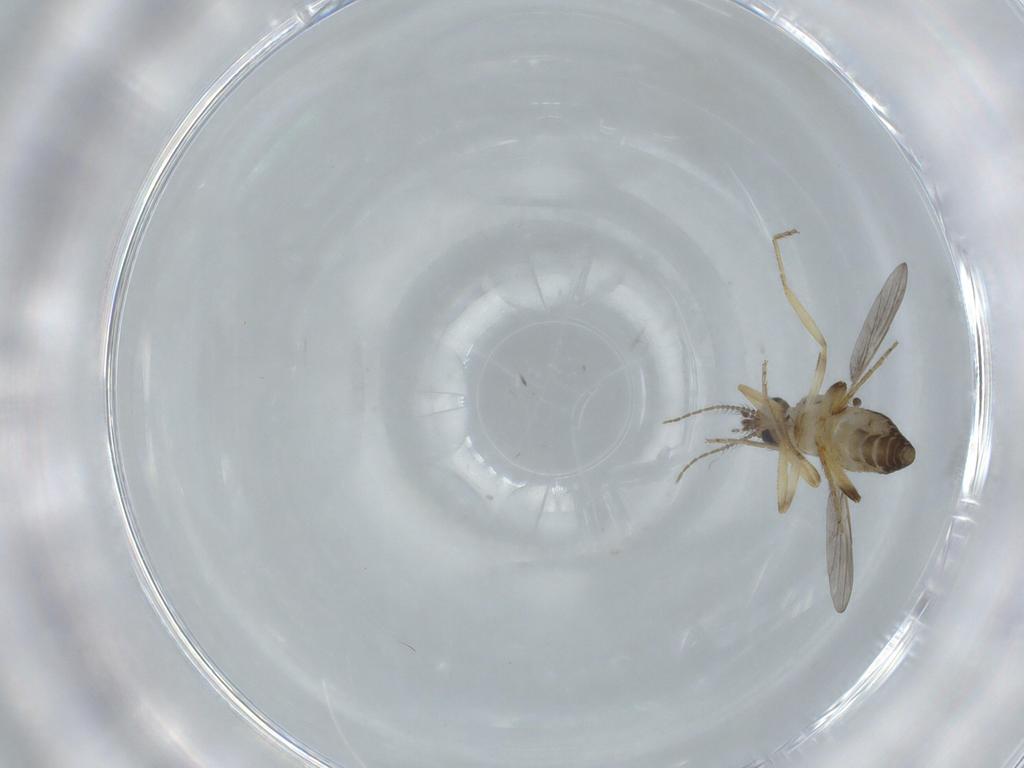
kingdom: Animalia
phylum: Arthropoda
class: Insecta
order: Diptera
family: Ceratopogonidae
